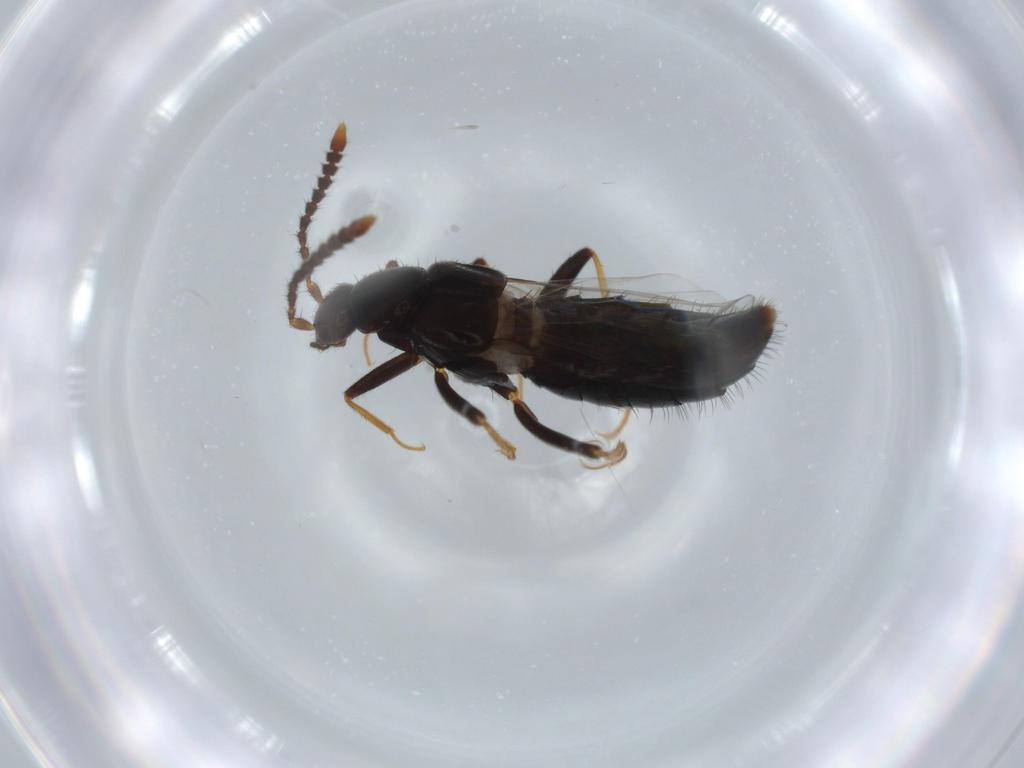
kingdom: Animalia
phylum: Arthropoda
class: Insecta
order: Coleoptera
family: Staphylinidae
